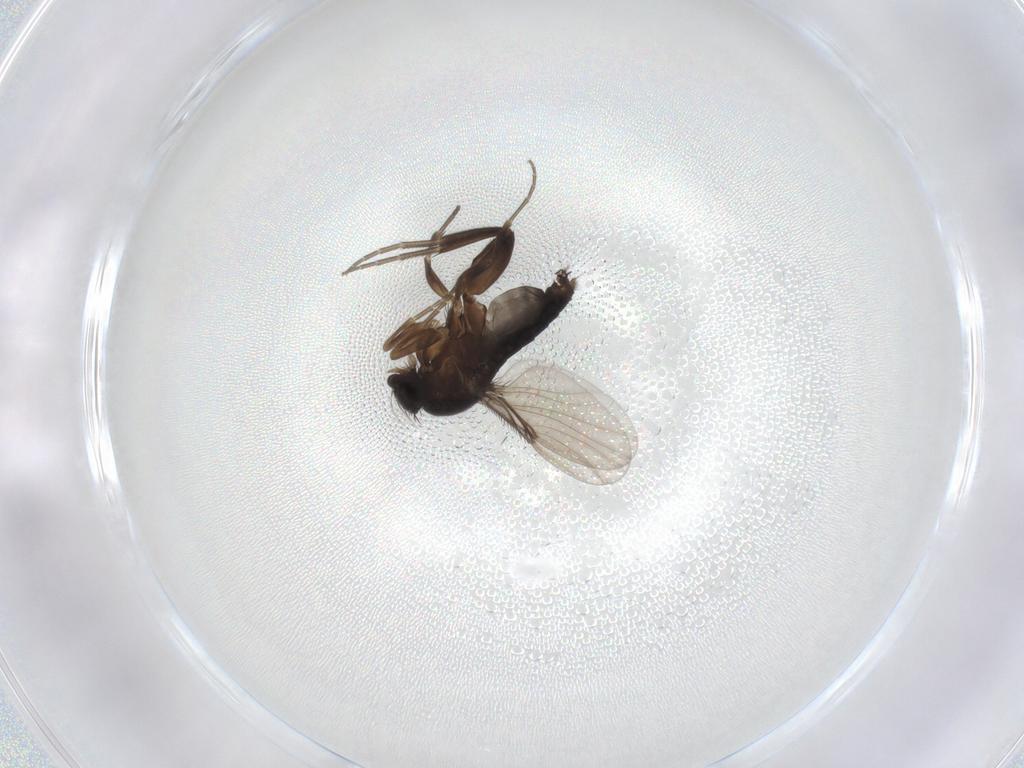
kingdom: Animalia
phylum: Arthropoda
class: Insecta
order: Diptera
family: Phoridae
